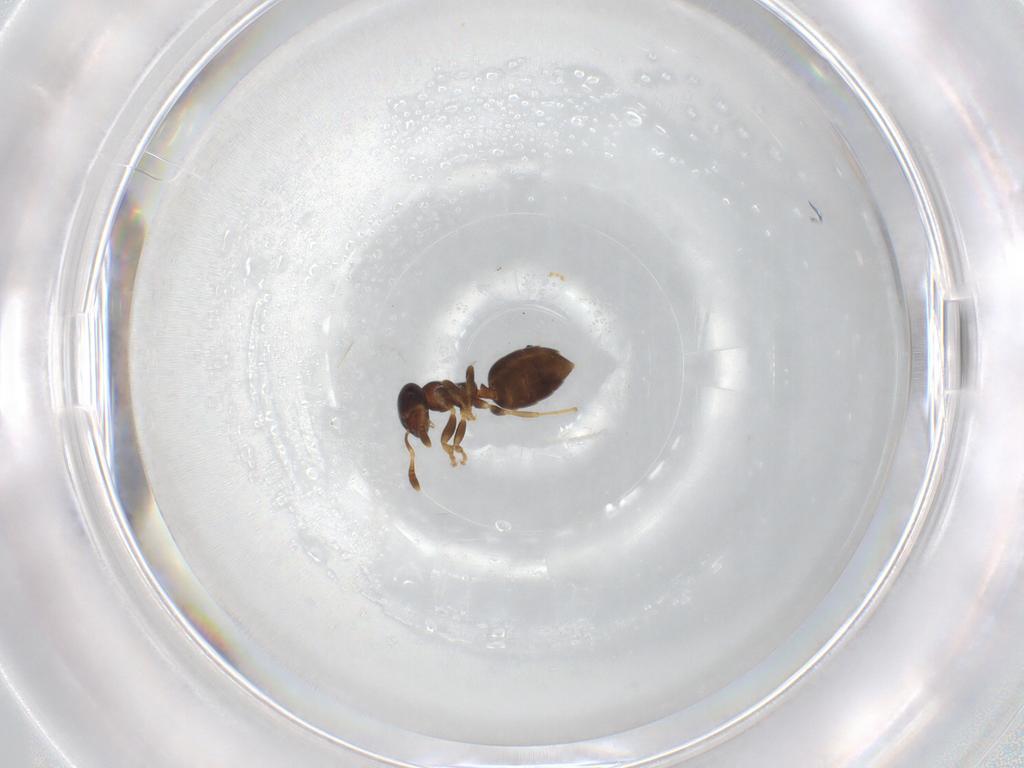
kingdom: Animalia
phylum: Arthropoda
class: Insecta
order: Hymenoptera
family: Formicidae
